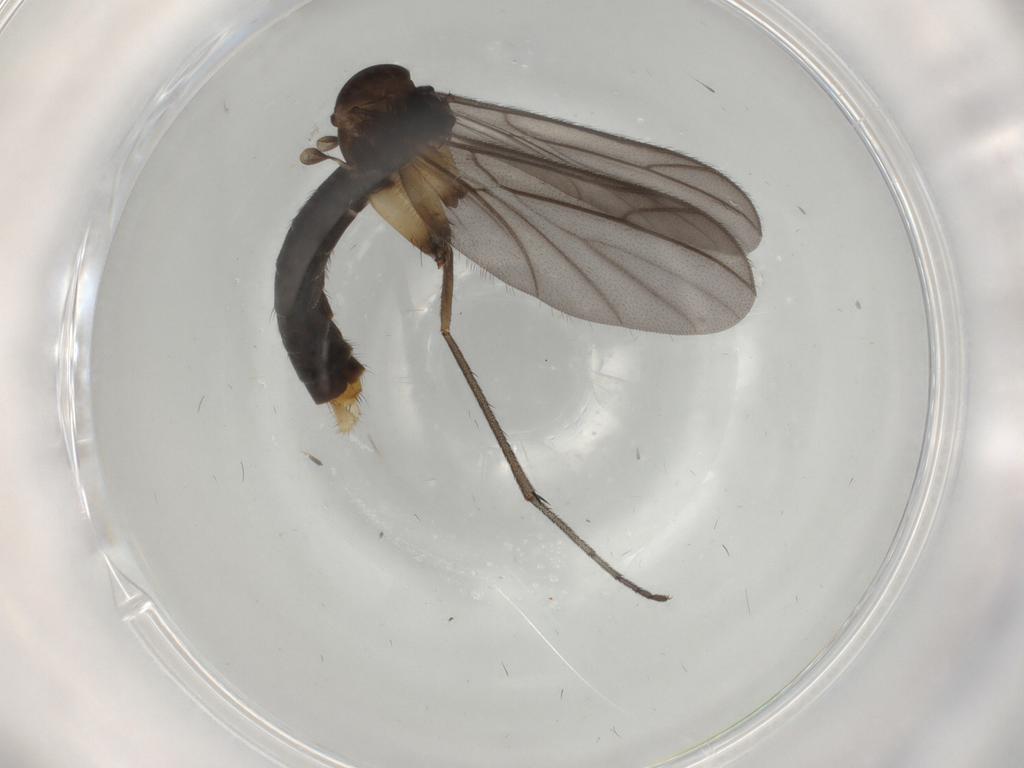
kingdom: Animalia
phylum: Arthropoda
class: Insecta
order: Diptera
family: Ditomyiidae
